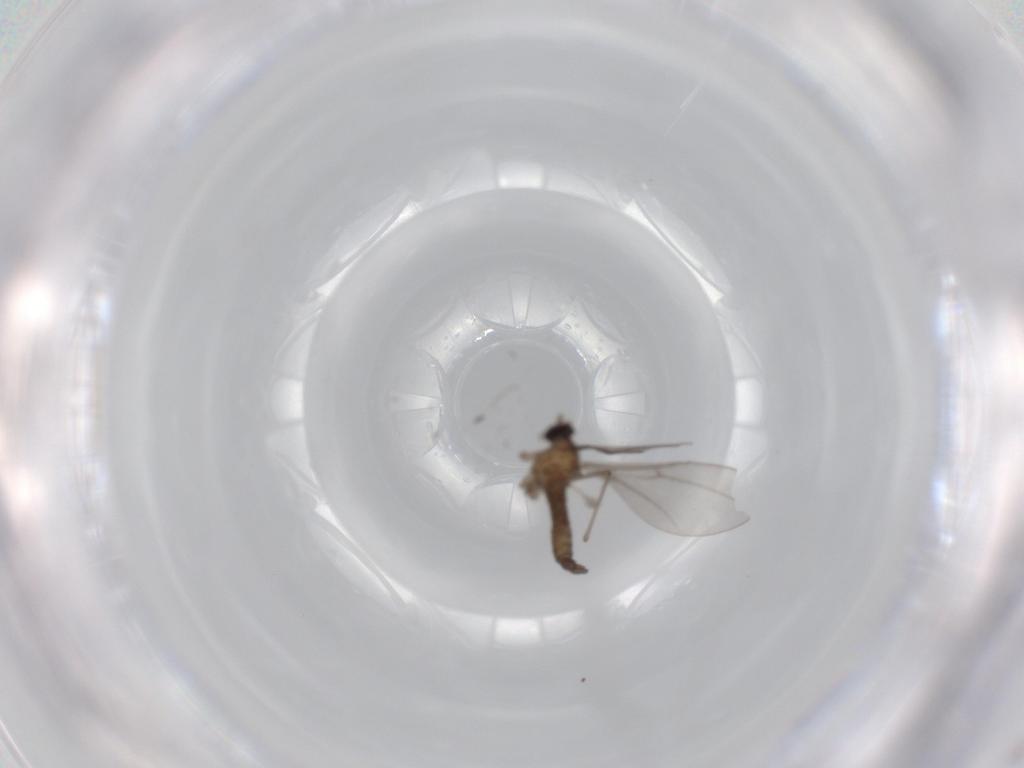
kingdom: Animalia
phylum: Arthropoda
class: Insecta
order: Diptera
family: Cecidomyiidae
